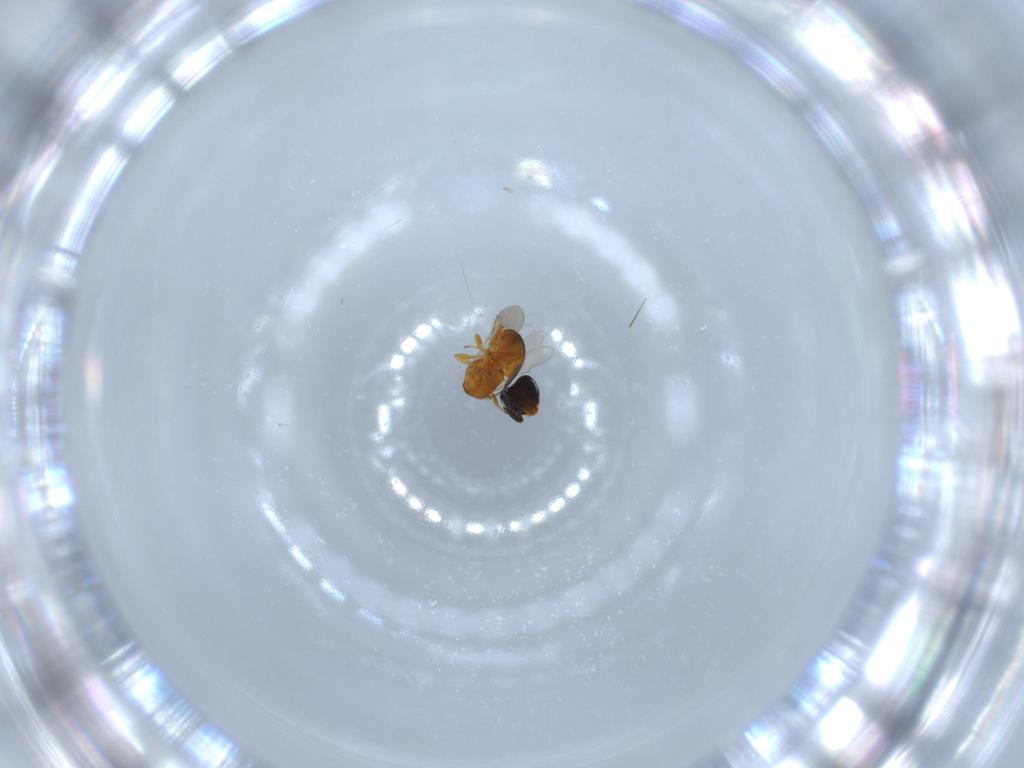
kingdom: Animalia
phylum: Arthropoda
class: Insecta
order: Hymenoptera
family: Scelionidae
